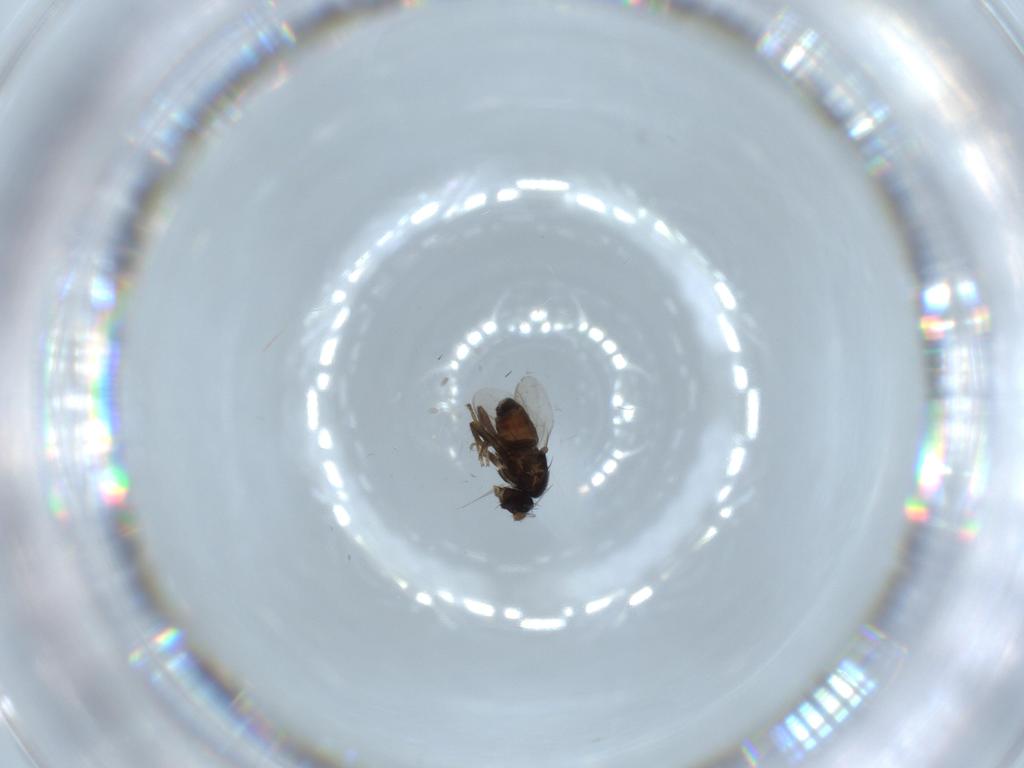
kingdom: Animalia
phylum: Arthropoda
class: Insecta
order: Diptera
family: Sphaeroceridae
